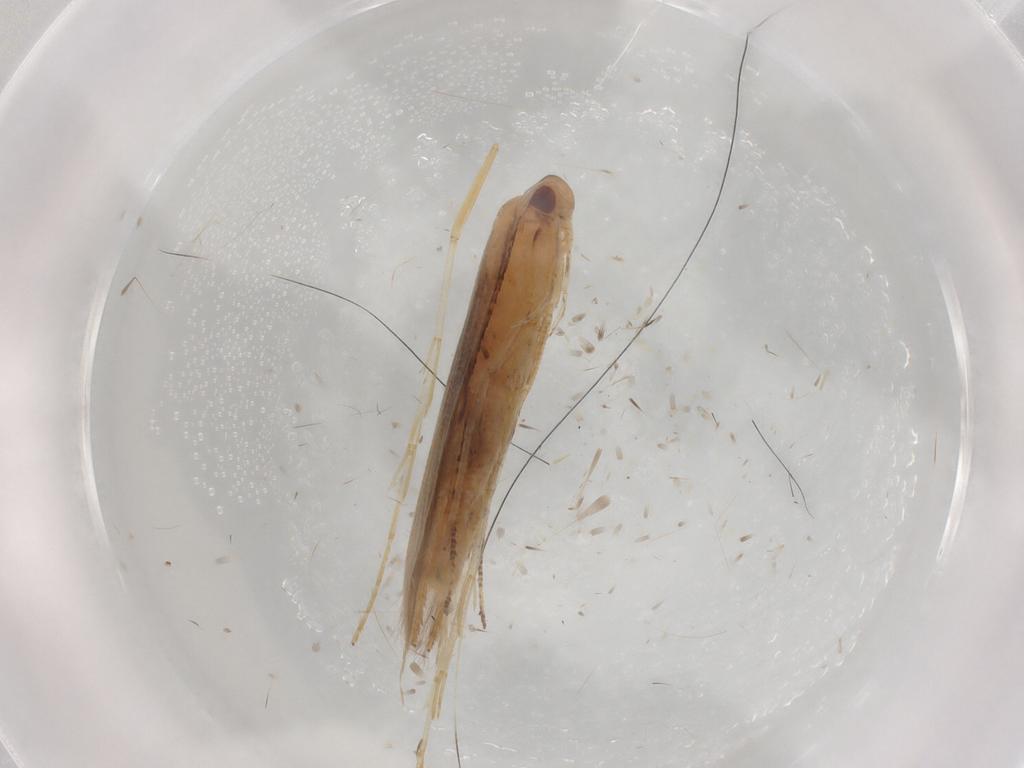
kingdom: Animalia
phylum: Arthropoda
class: Insecta
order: Lepidoptera
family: Cosmopterigidae
